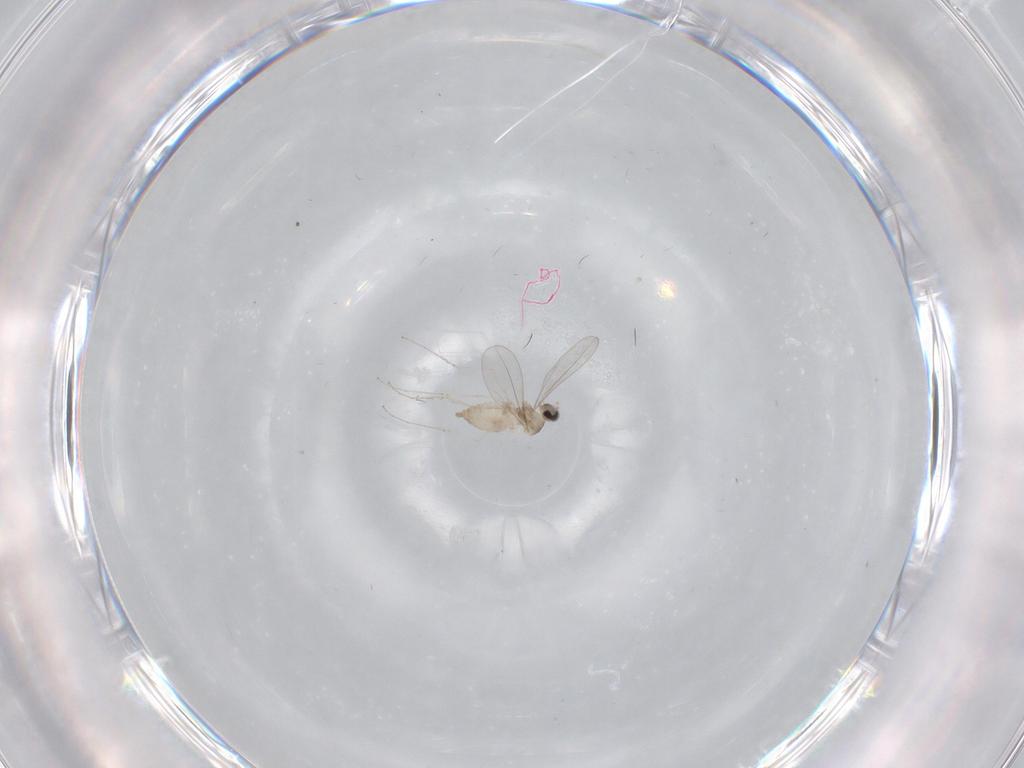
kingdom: Animalia
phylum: Arthropoda
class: Insecta
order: Diptera
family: Cecidomyiidae
